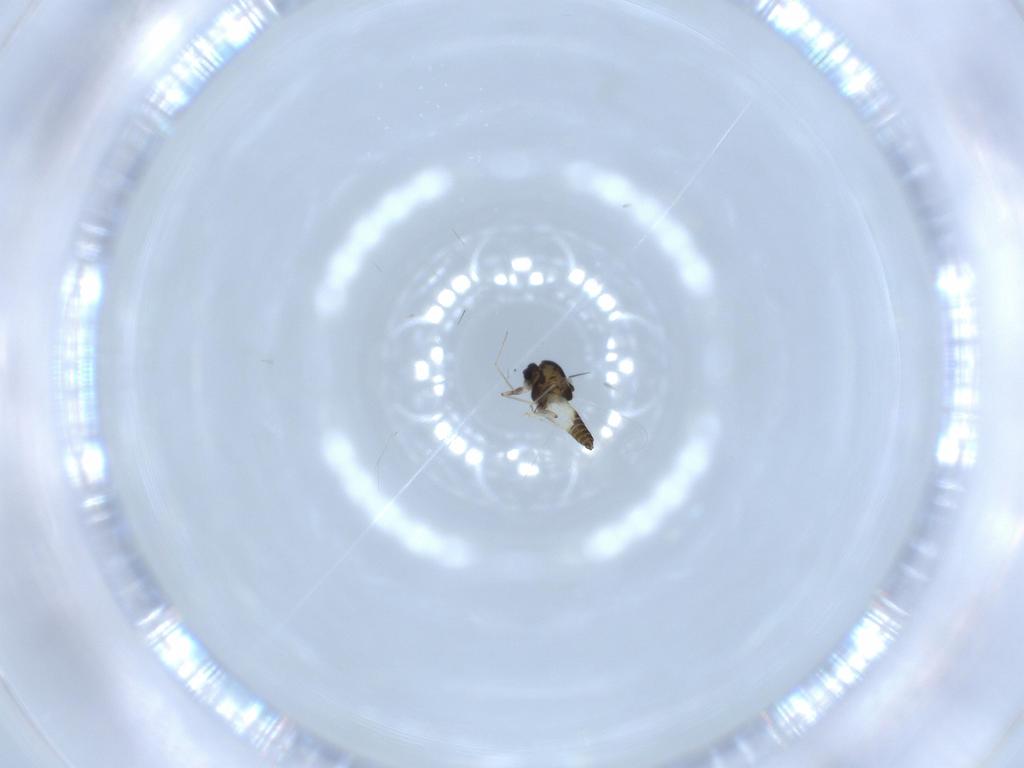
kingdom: Animalia
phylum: Arthropoda
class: Insecta
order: Diptera
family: Chironomidae
